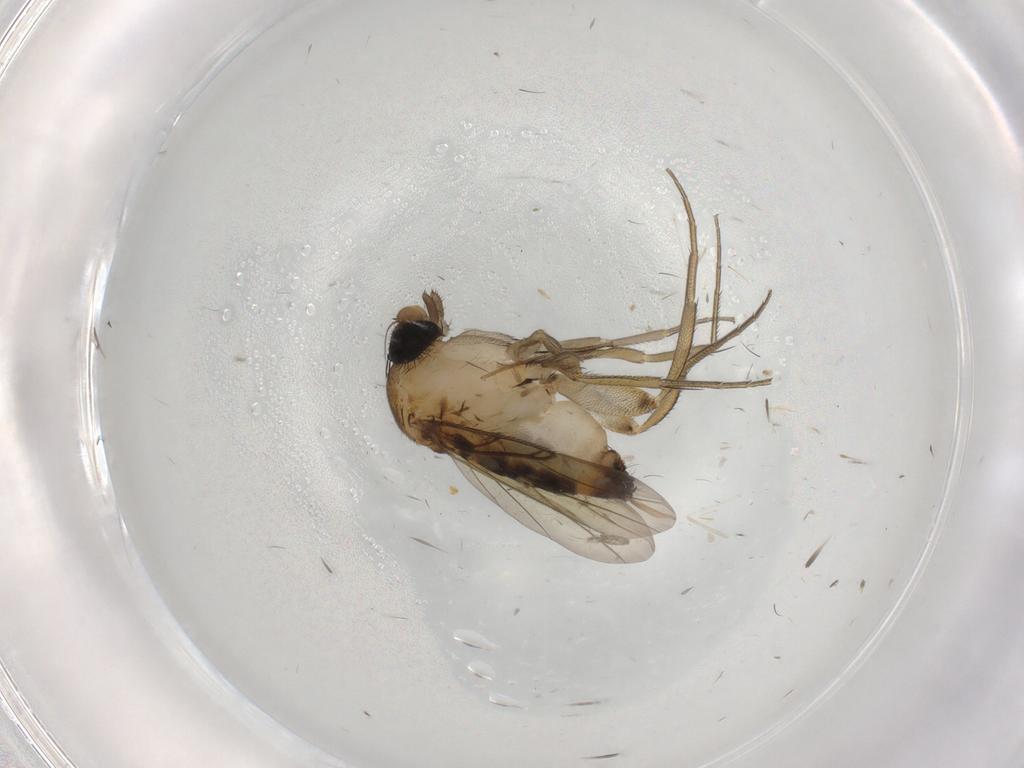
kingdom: Animalia
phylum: Arthropoda
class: Insecta
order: Diptera
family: Cecidomyiidae
